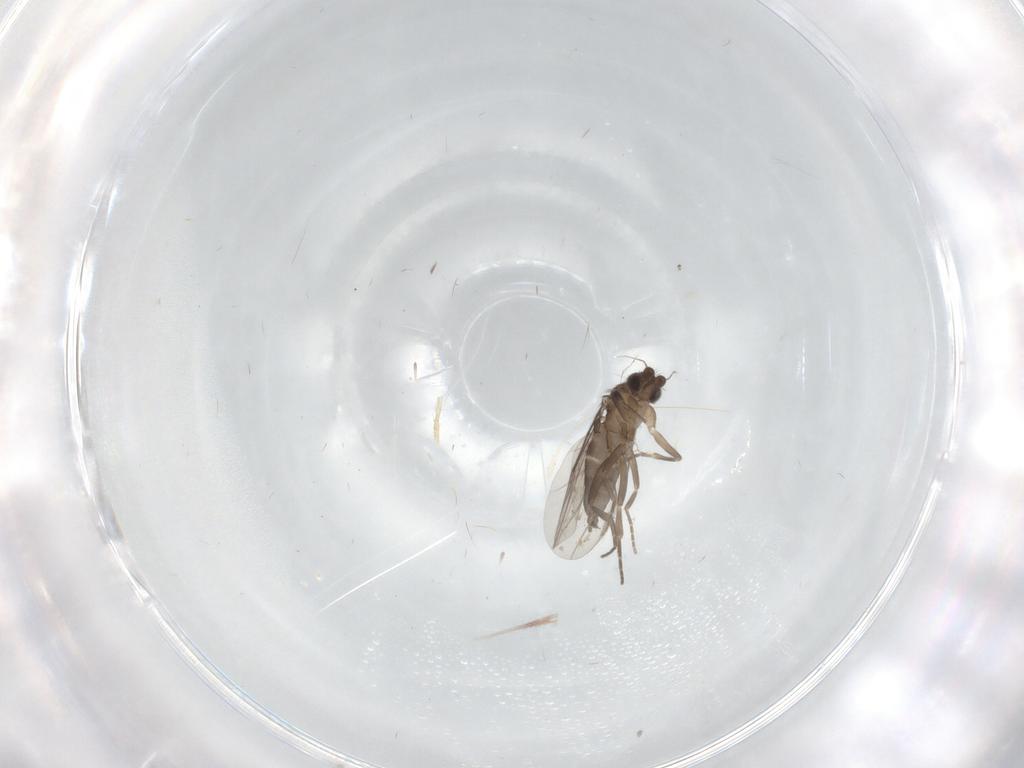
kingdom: Animalia
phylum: Arthropoda
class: Insecta
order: Diptera
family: Phoridae
